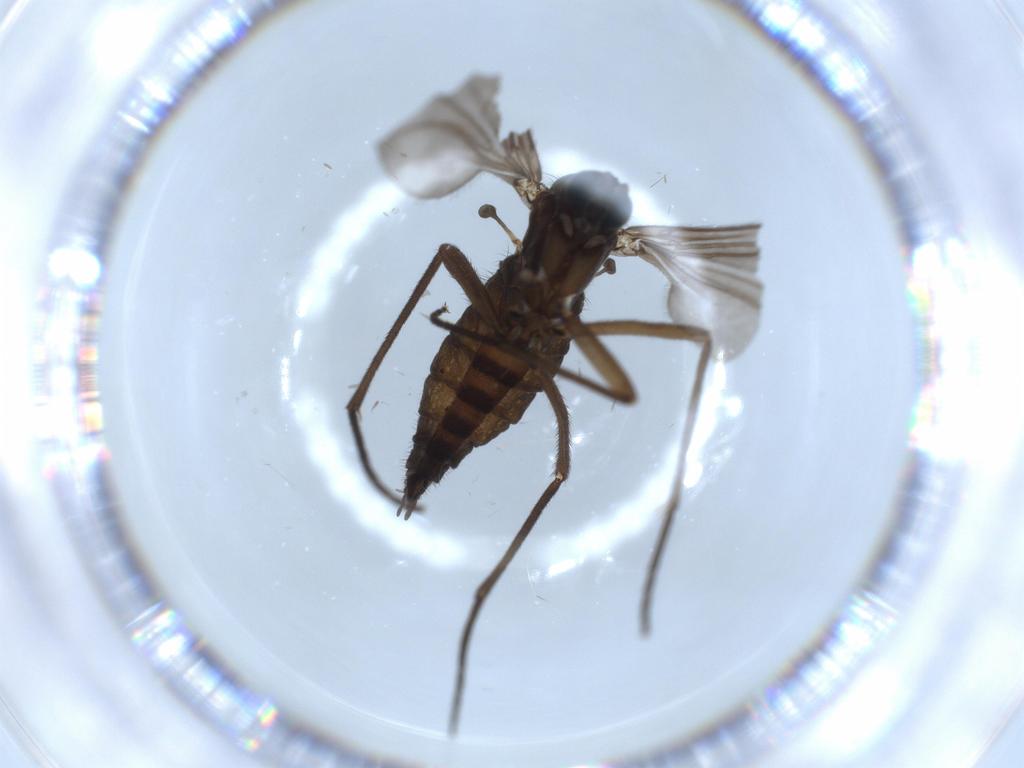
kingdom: Animalia
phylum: Arthropoda
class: Insecta
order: Diptera
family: Sciaridae
